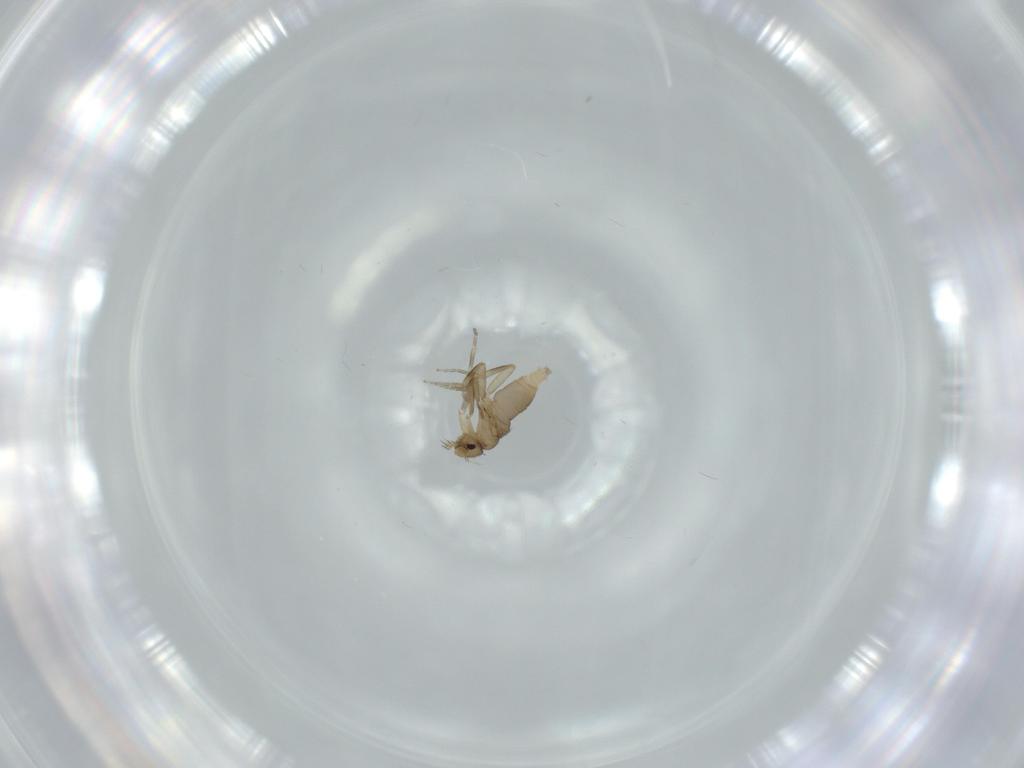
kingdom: Animalia
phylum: Arthropoda
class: Insecta
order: Diptera
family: Phoridae
